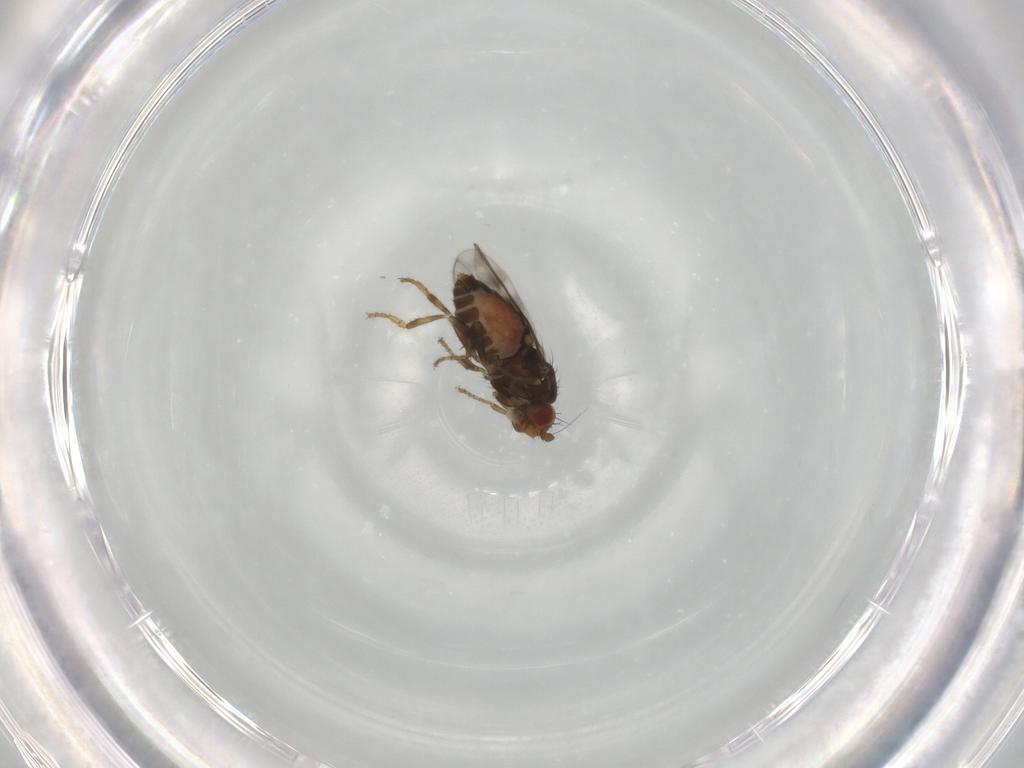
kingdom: Animalia
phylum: Arthropoda
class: Insecta
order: Diptera
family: Sphaeroceridae
